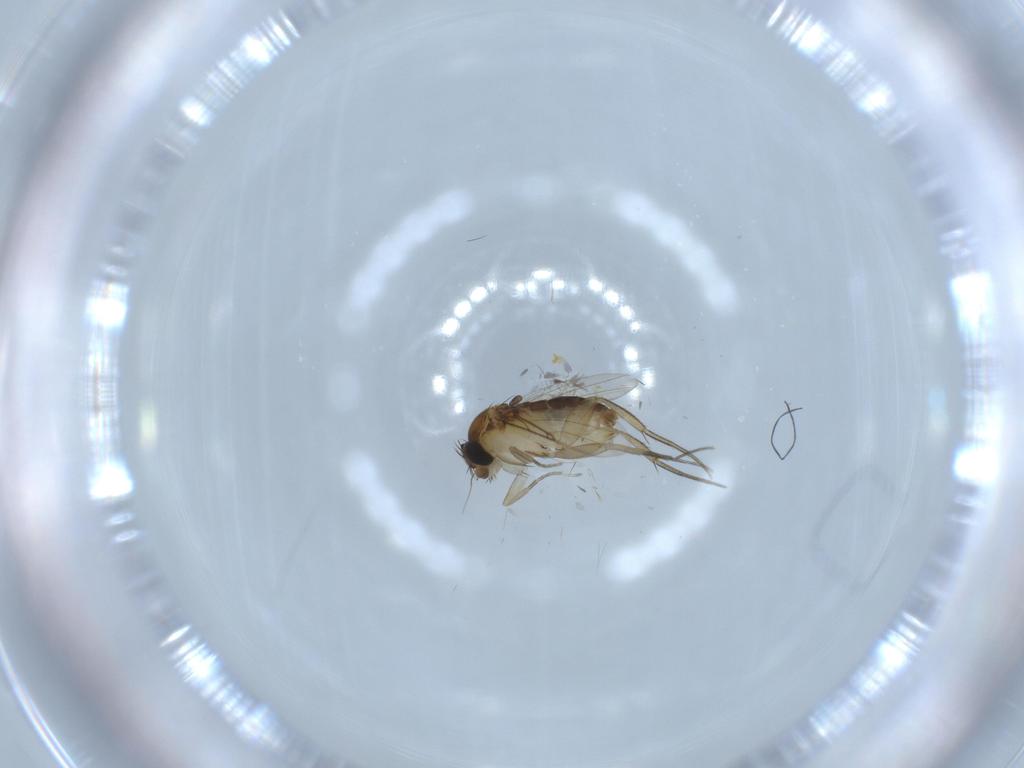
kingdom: Animalia
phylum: Arthropoda
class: Insecta
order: Diptera
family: Phoridae
